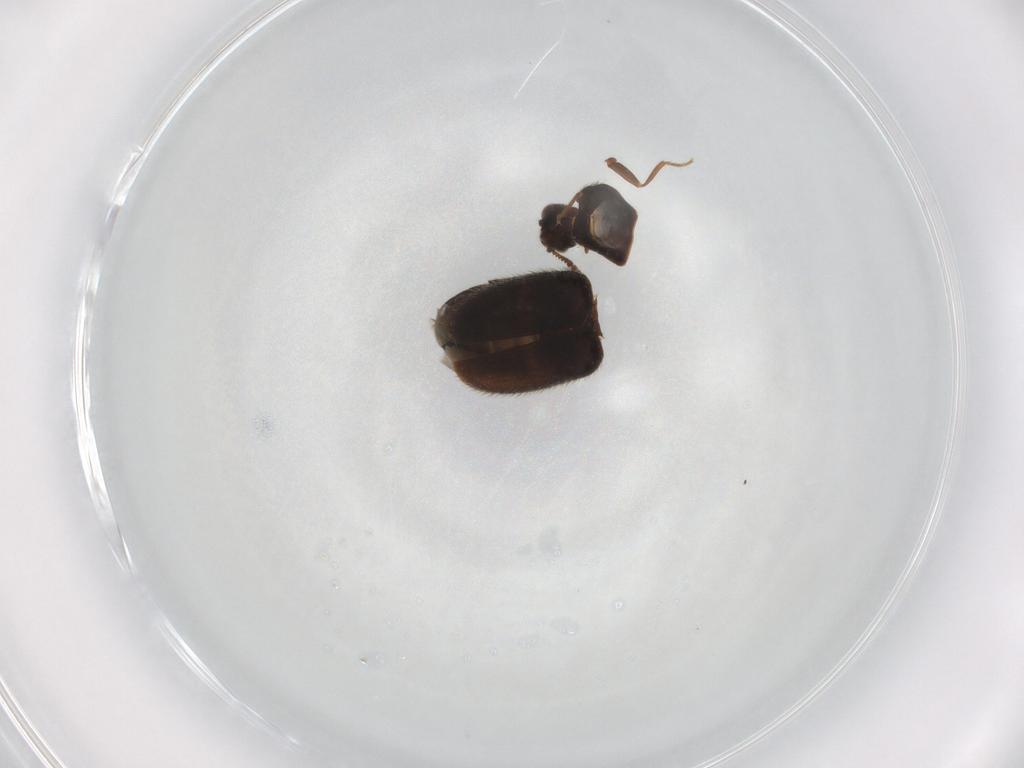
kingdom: Animalia
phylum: Arthropoda
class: Insecta
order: Coleoptera
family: Dermestidae
